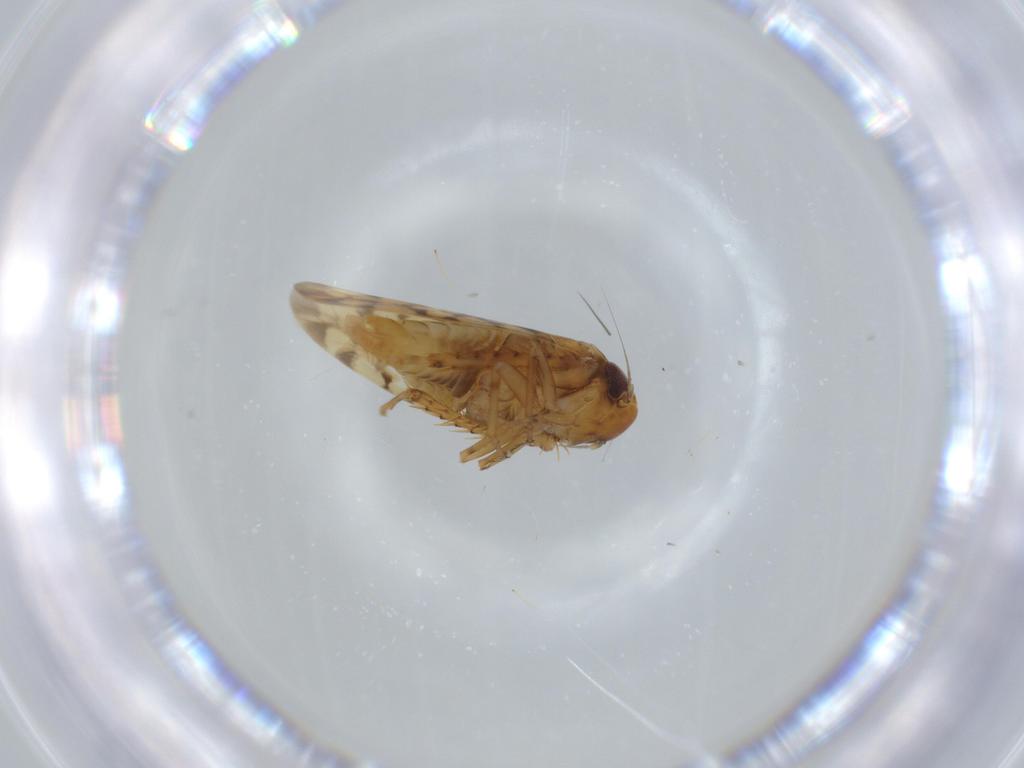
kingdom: Animalia
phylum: Arthropoda
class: Insecta
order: Hemiptera
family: Cicadellidae
